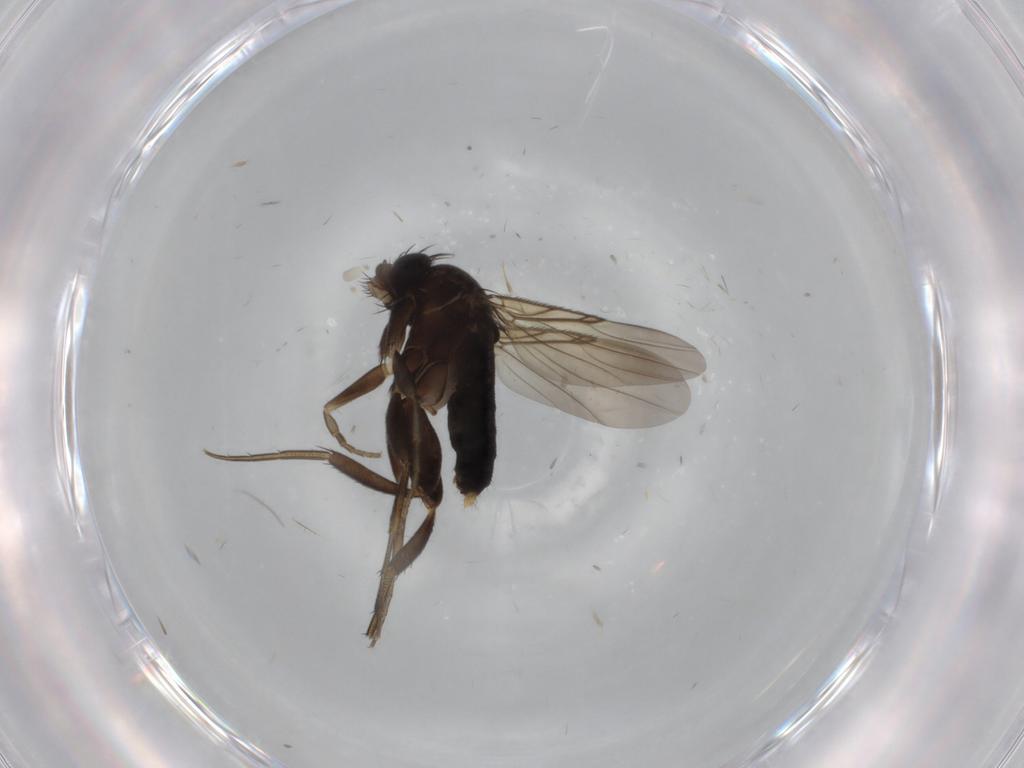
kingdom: Animalia
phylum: Arthropoda
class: Insecta
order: Diptera
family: Sphaeroceridae
